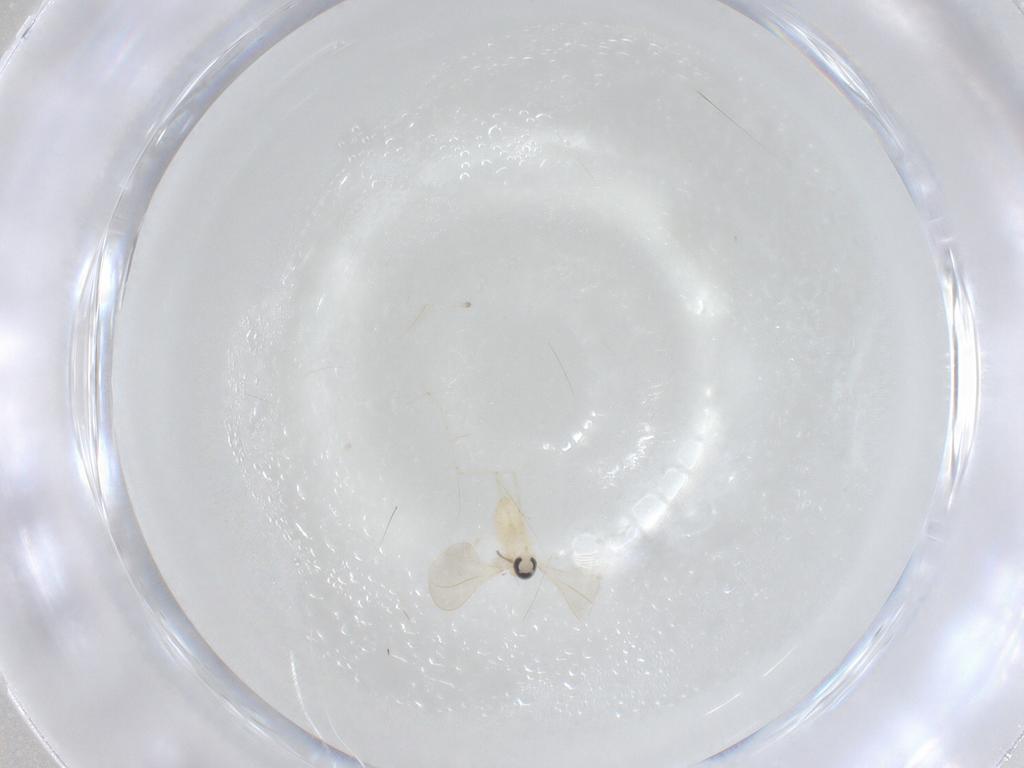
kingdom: Animalia
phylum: Arthropoda
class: Insecta
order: Diptera
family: Cecidomyiidae
